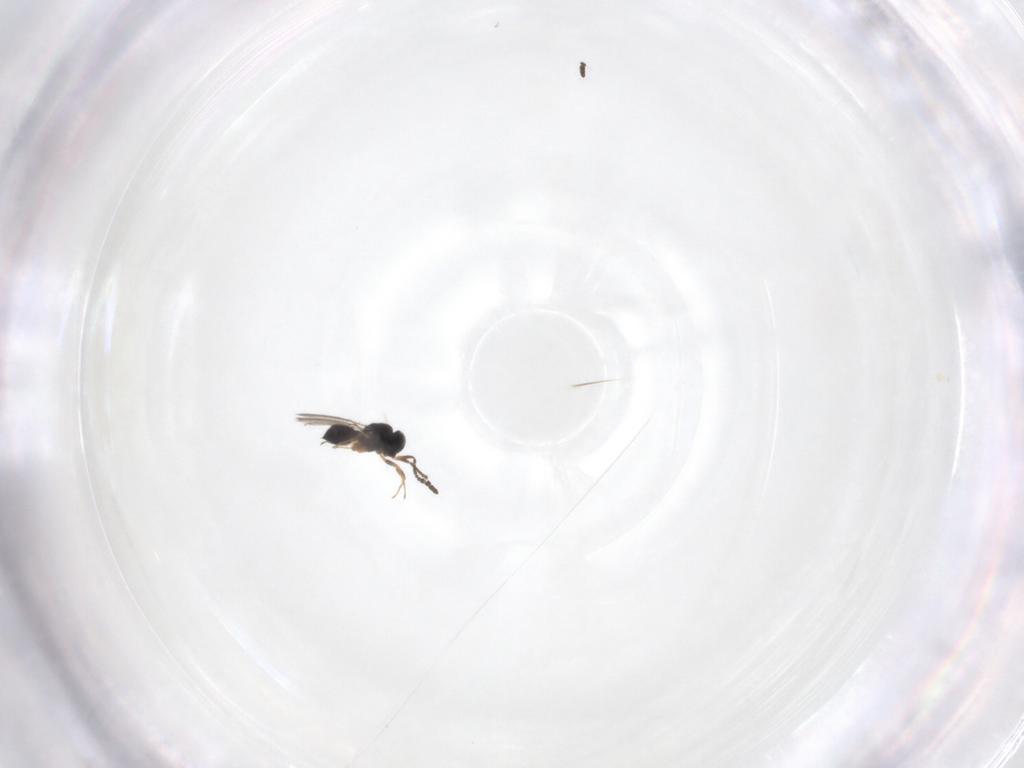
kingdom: Animalia
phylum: Arthropoda
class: Insecta
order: Hymenoptera
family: Scelionidae
